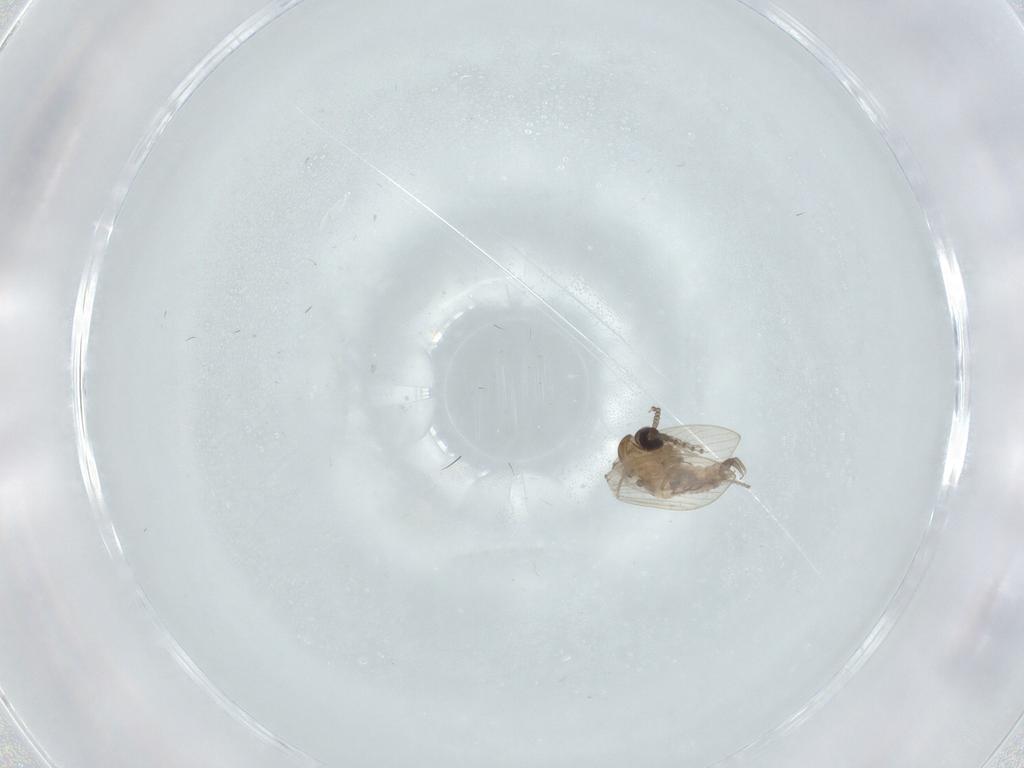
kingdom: Animalia
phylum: Arthropoda
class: Insecta
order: Diptera
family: Psychodidae
